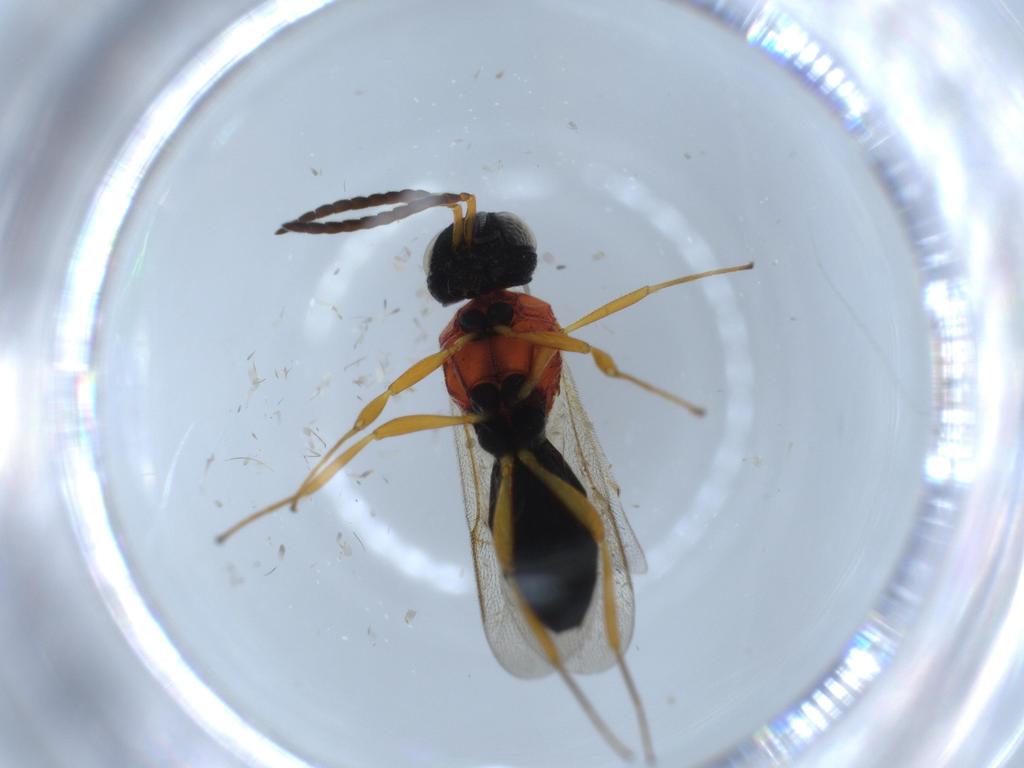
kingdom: Animalia
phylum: Arthropoda
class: Insecta
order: Hymenoptera
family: Scelionidae
